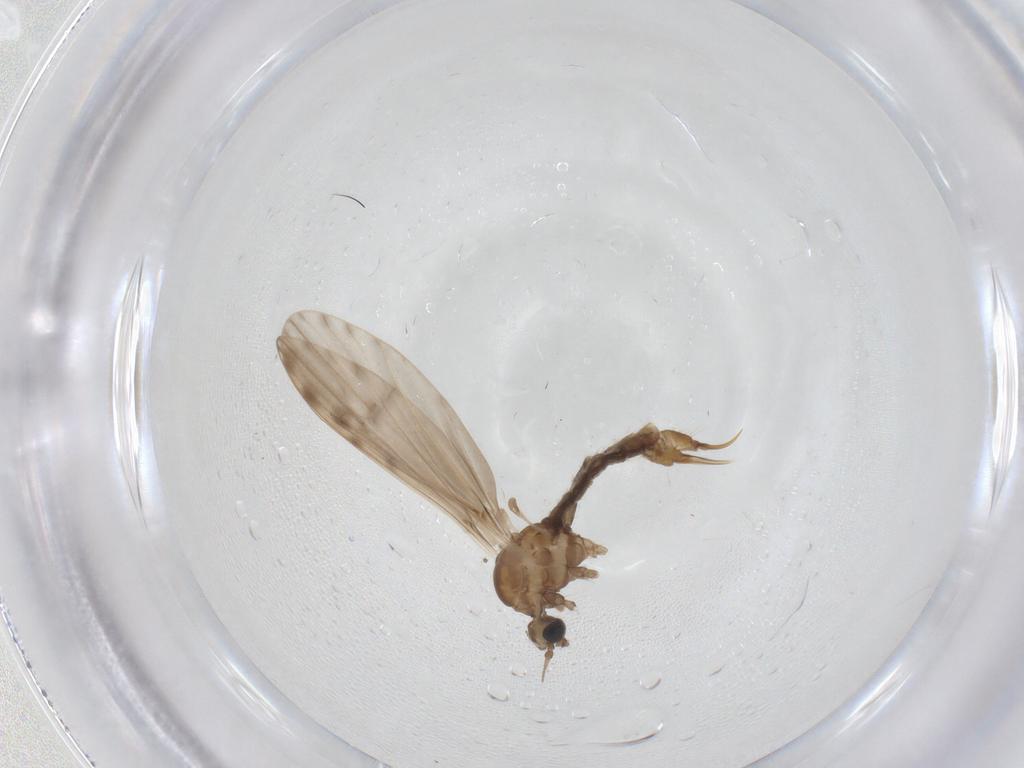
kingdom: Animalia
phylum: Arthropoda
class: Insecta
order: Diptera
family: Limoniidae
